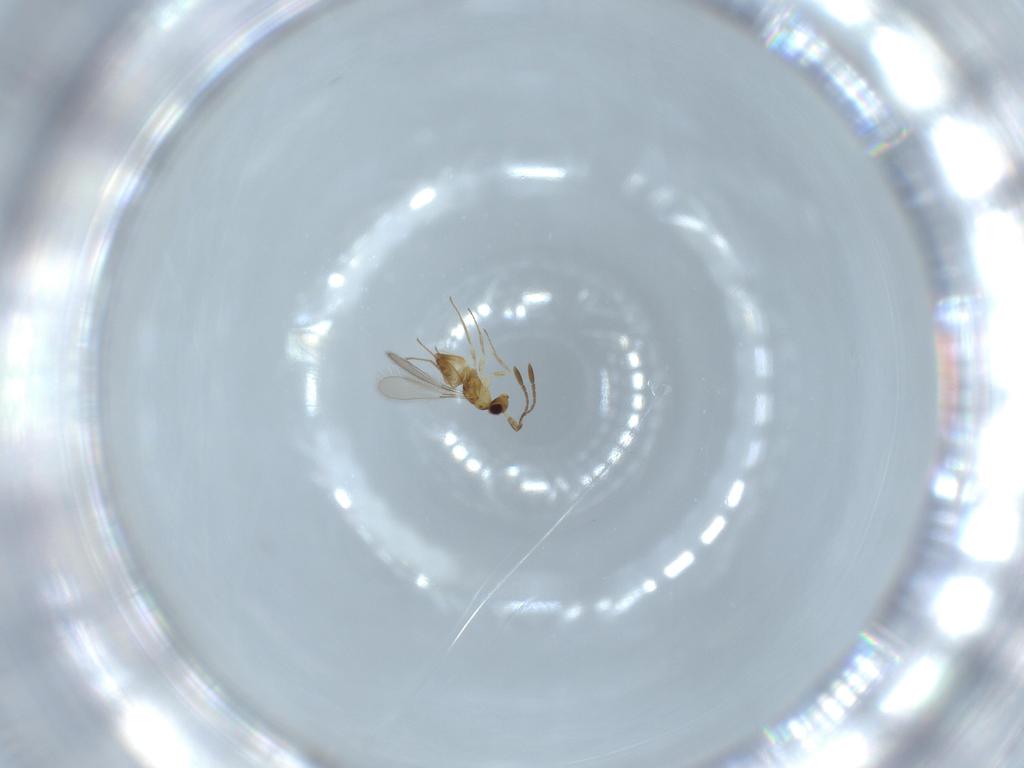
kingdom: Animalia
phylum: Arthropoda
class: Insecta
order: Hymenoptera
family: Mymaridae
